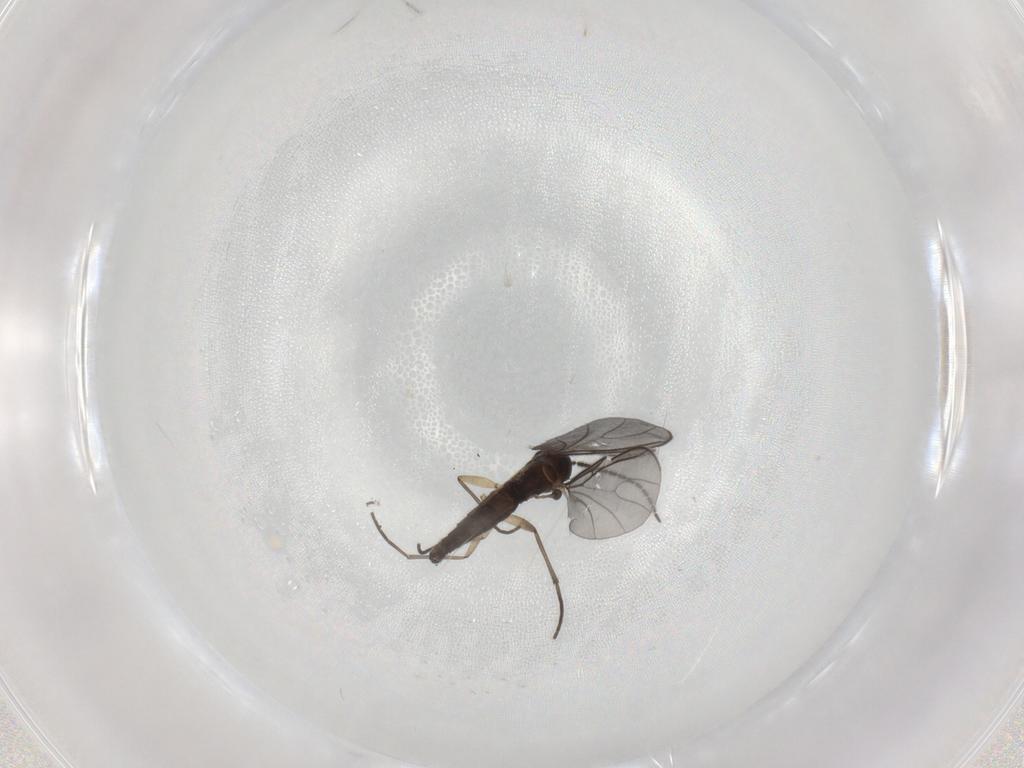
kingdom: Animalia
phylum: Arthropoda
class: Insecta
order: Diptera
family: Sciaridae
